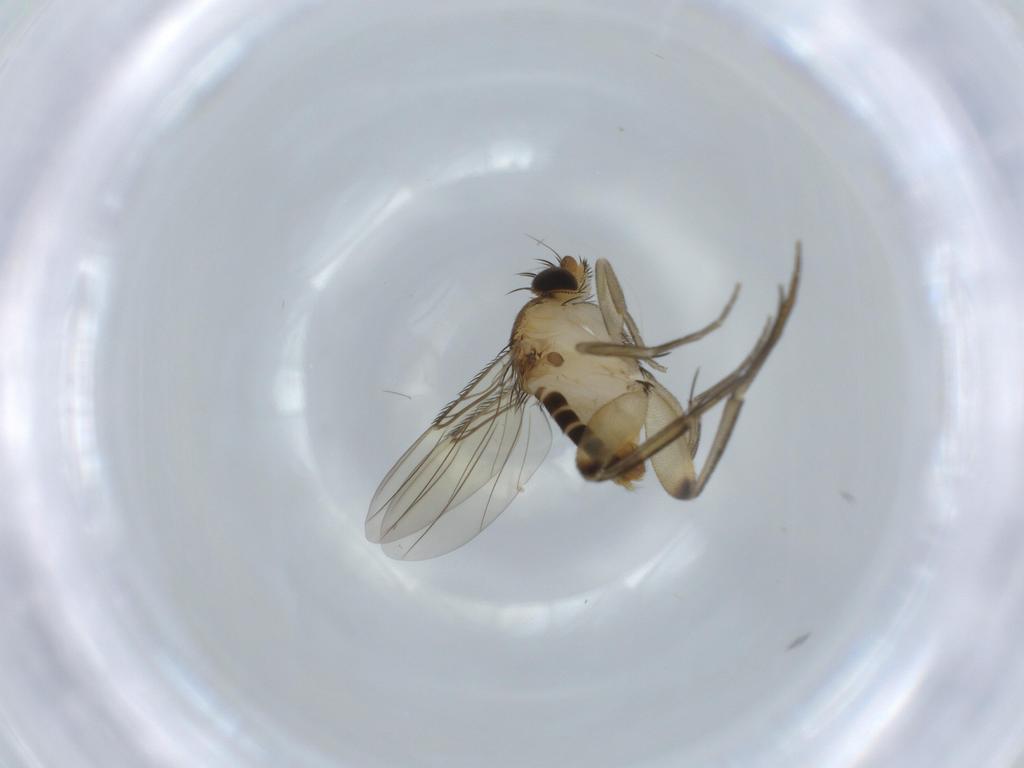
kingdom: Animalia
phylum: Arthropoda
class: Insecta
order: Diptera
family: Phoridae
